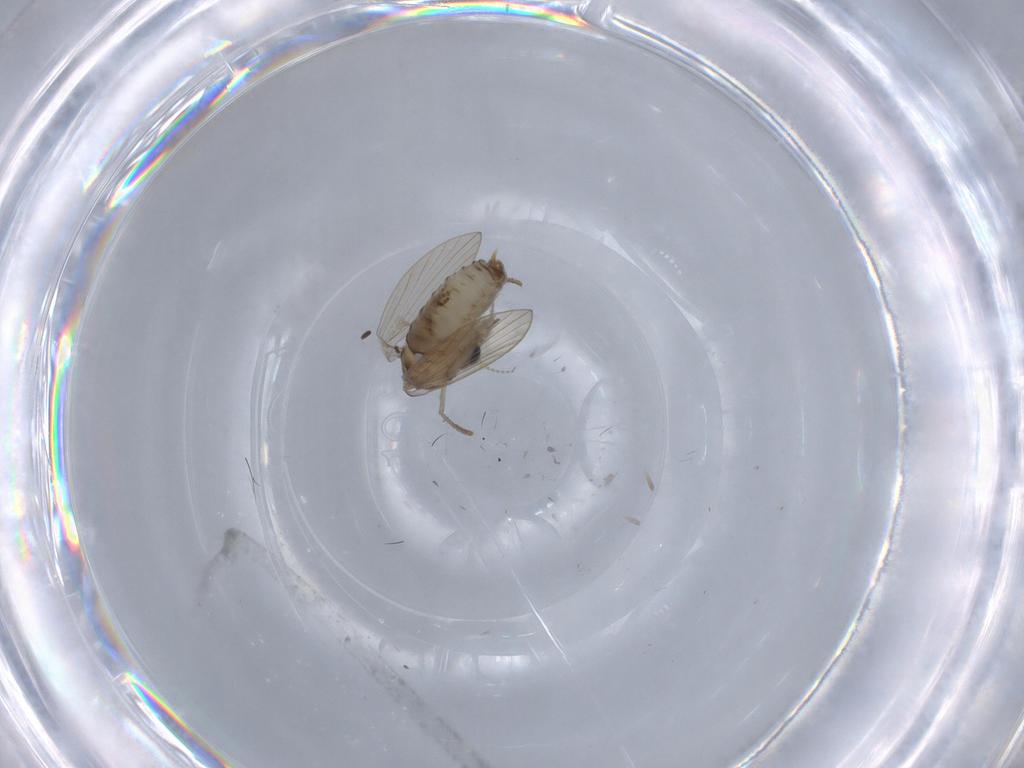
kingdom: Animalia
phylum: Arthropoda
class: Insecta
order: Diptera
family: Psychodidae
